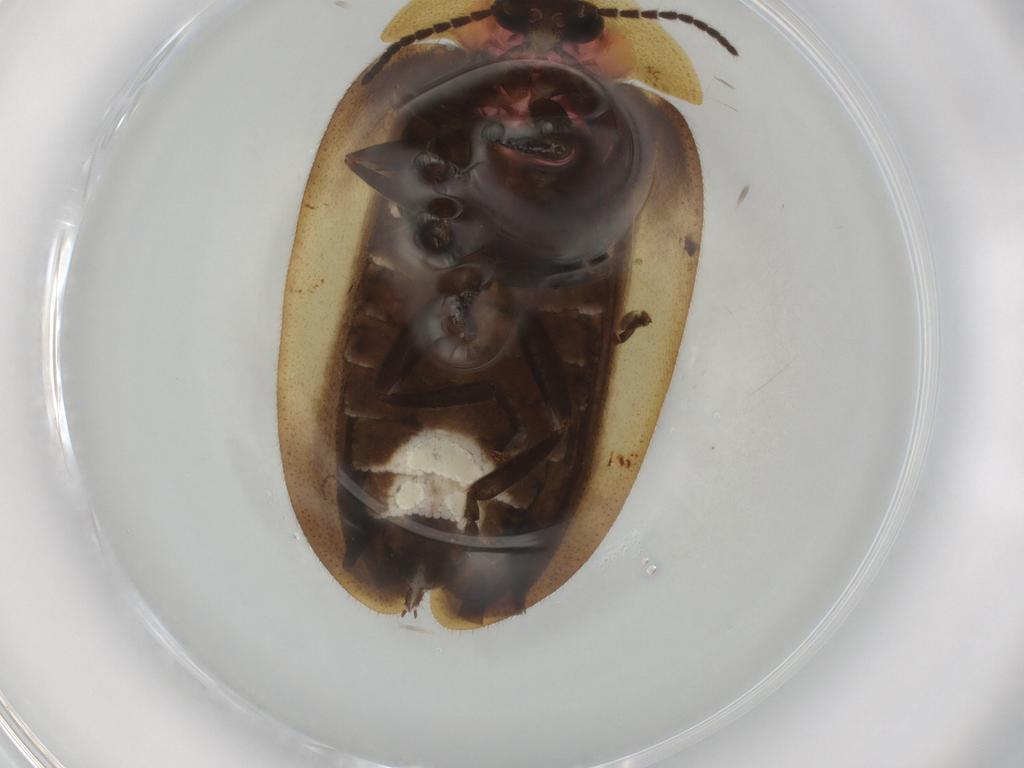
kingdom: Animalia
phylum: Arthropoda
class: Insecta
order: Coleoptera
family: Lampyridae
